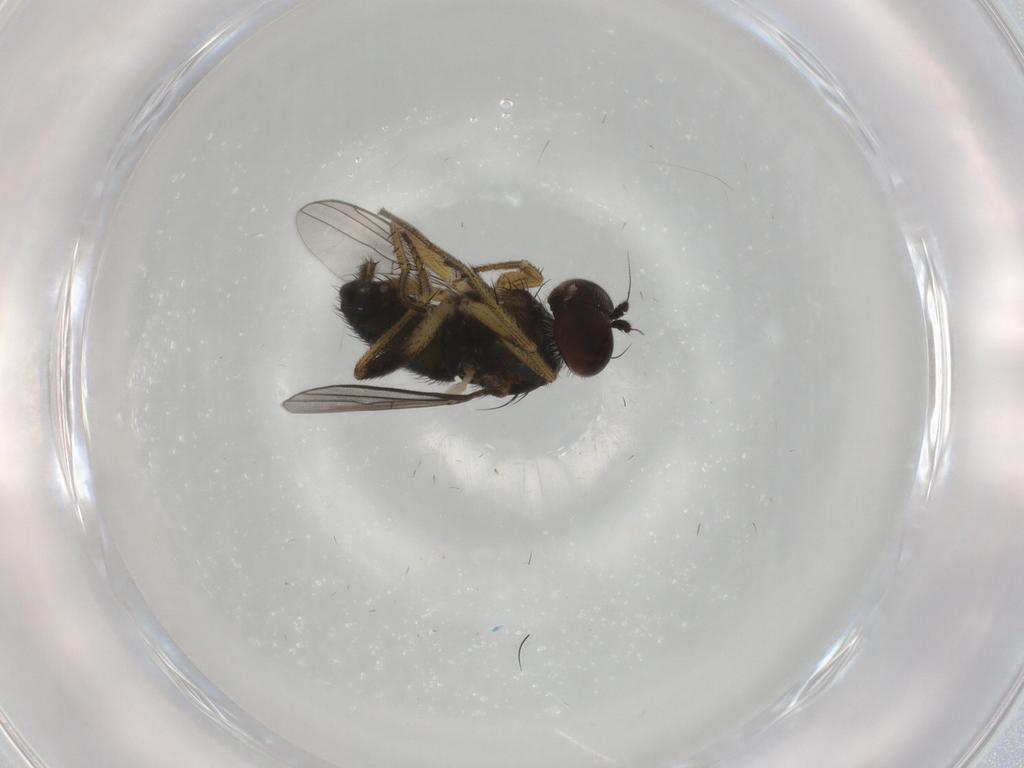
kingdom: Animalia
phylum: Arthropoda
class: Insecta
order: Diptera
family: Dolichopodidae
